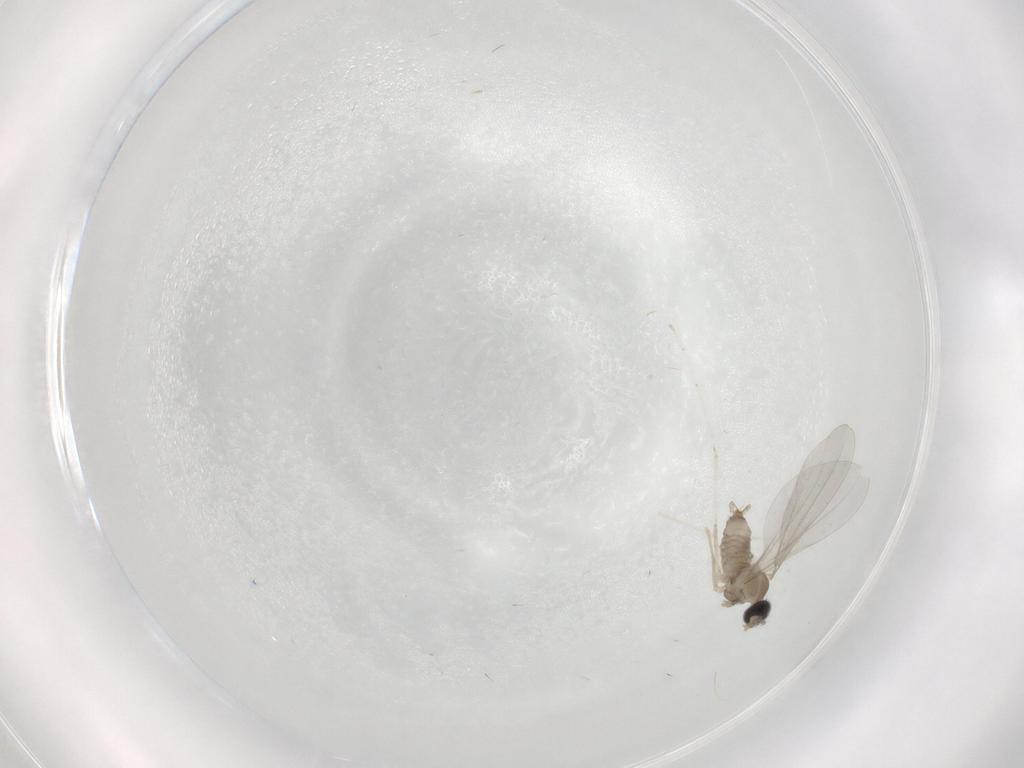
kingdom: Animalia
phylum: Arthropoda
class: Insecta
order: Diptera
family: Cecidomyiidae
